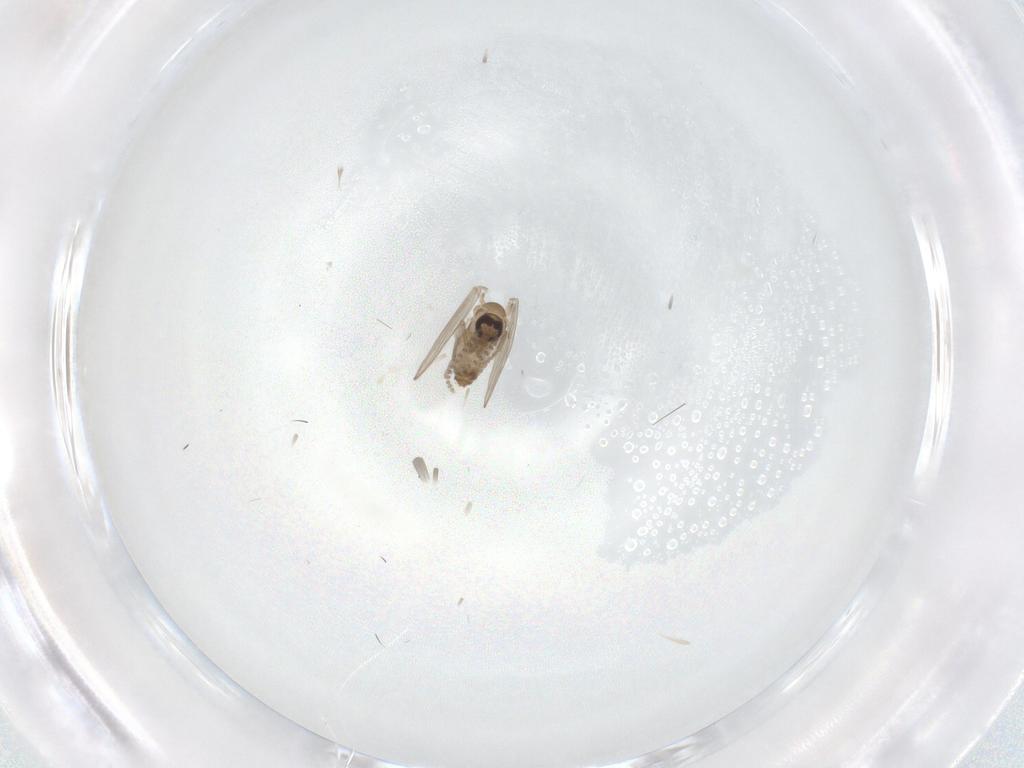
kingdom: Animalia
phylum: Arthropoda
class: Insecta
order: Diptera
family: Psychodidae
